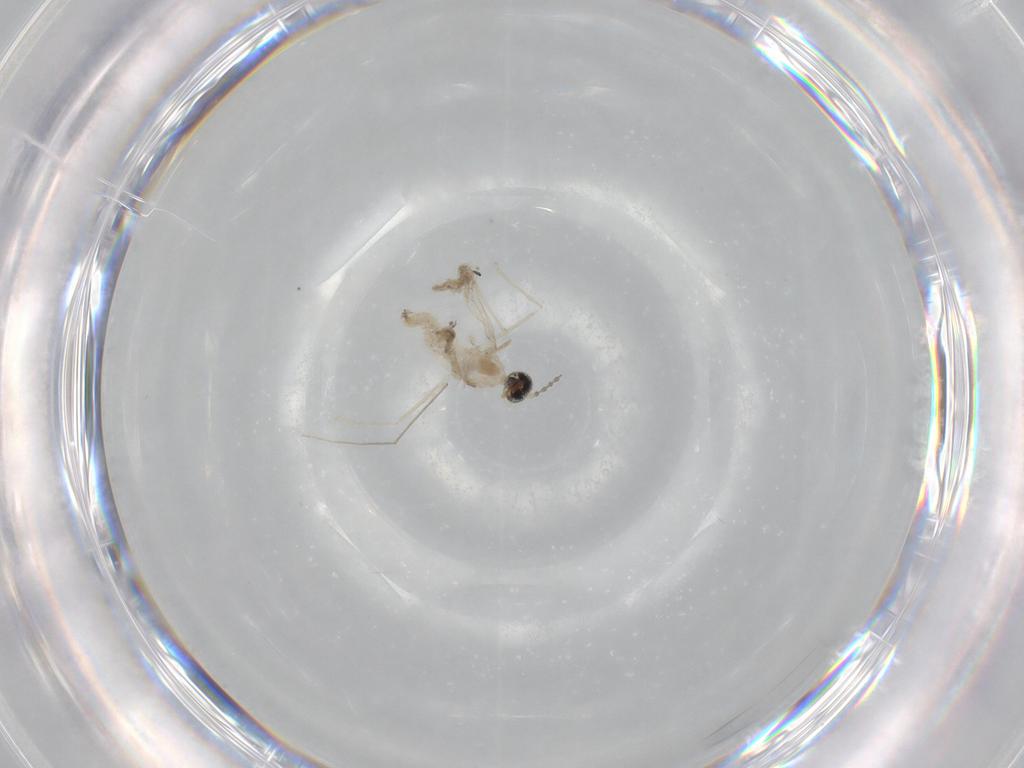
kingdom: Animalia
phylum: Arthropoda
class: Insecta
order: Diptera
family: Cecidomyiidae
